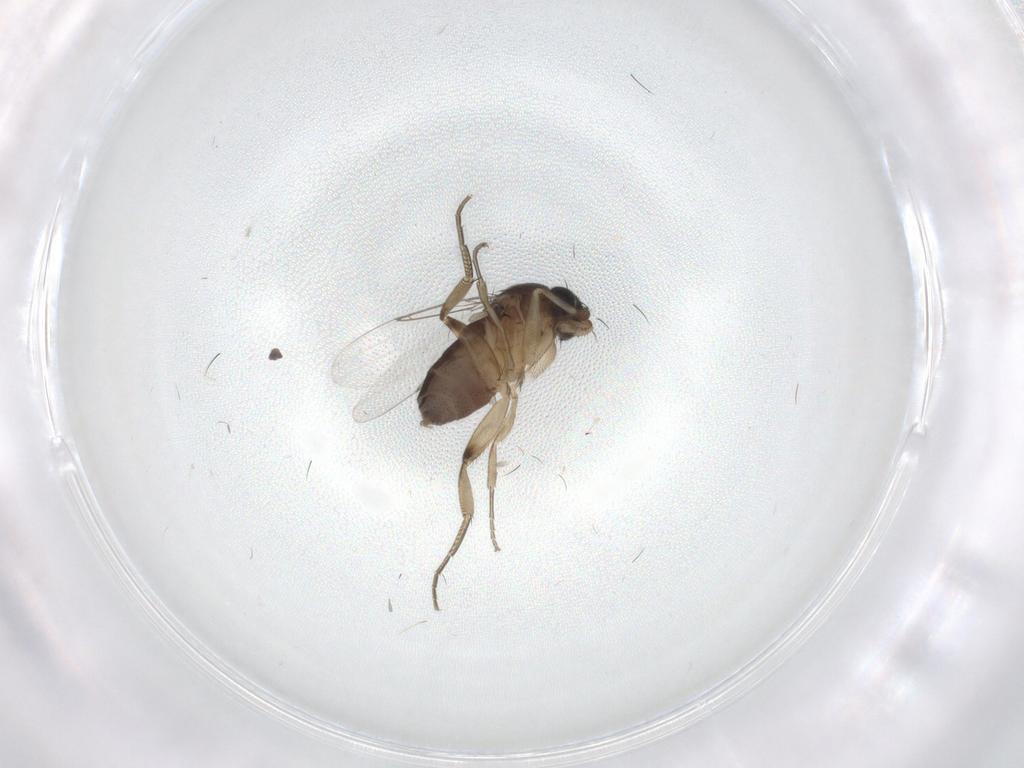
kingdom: Animalia
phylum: Arthropoda
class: Insecta
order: Diptera
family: Phoridae
